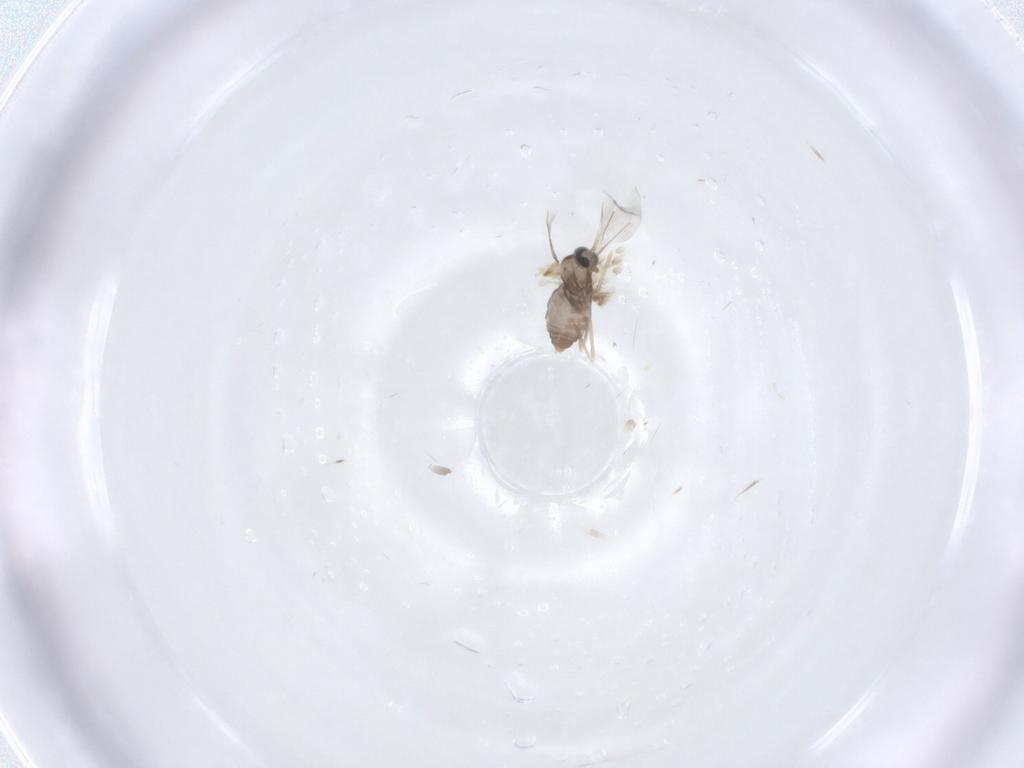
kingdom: Animalia
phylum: Arthropoda
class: Insecta
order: Diptera
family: Cecidomyiidae
